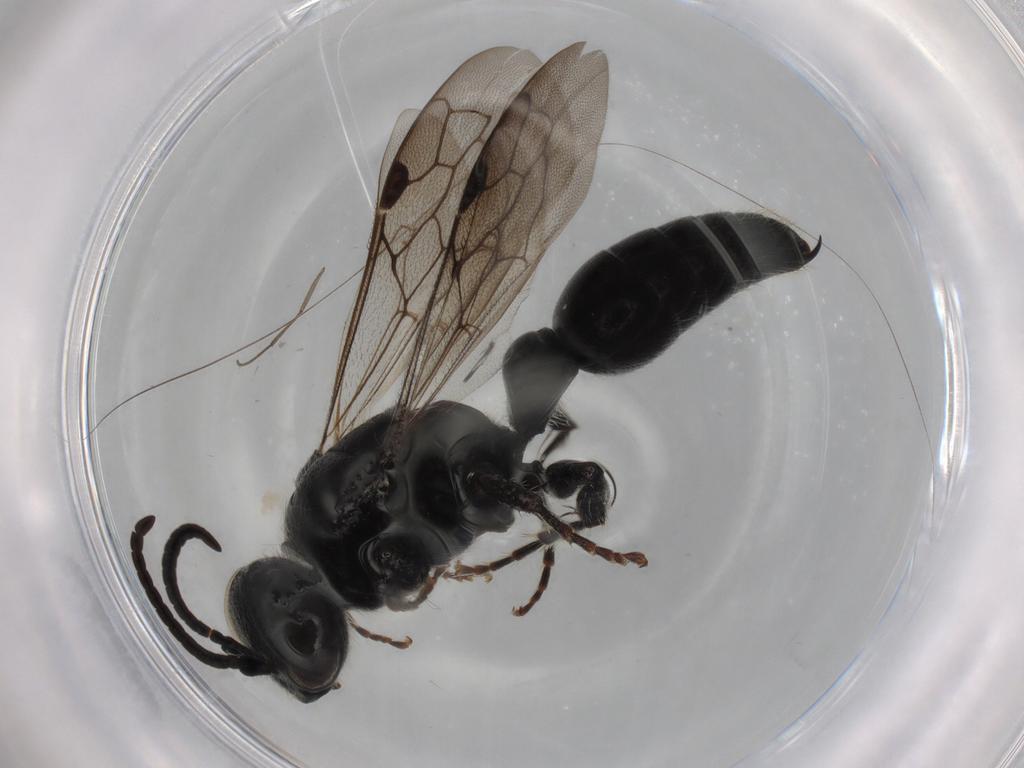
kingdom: Animalia
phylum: Arthropoda
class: Insecta
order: Hymenoptera
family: Tiphiidae
